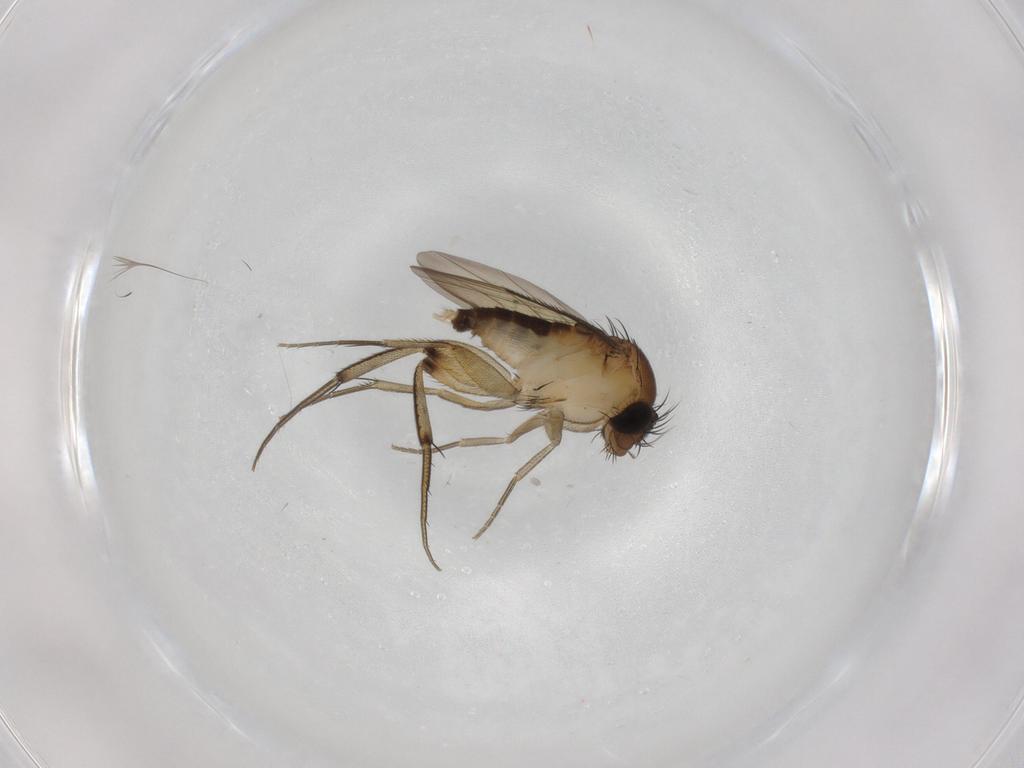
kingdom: Animalia
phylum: Arthropoda
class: Insecta
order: Diptera
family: Phoridae
